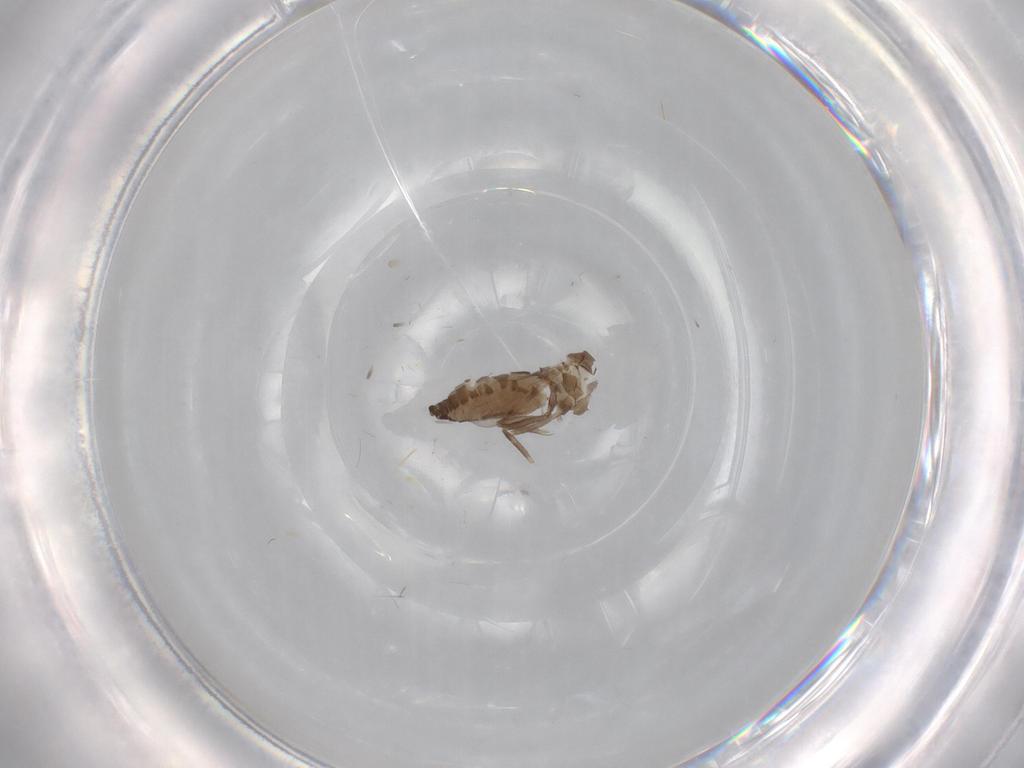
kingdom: Animalia
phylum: Arthropoda
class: Insecta
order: Diptera
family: Ceratopogonidae
